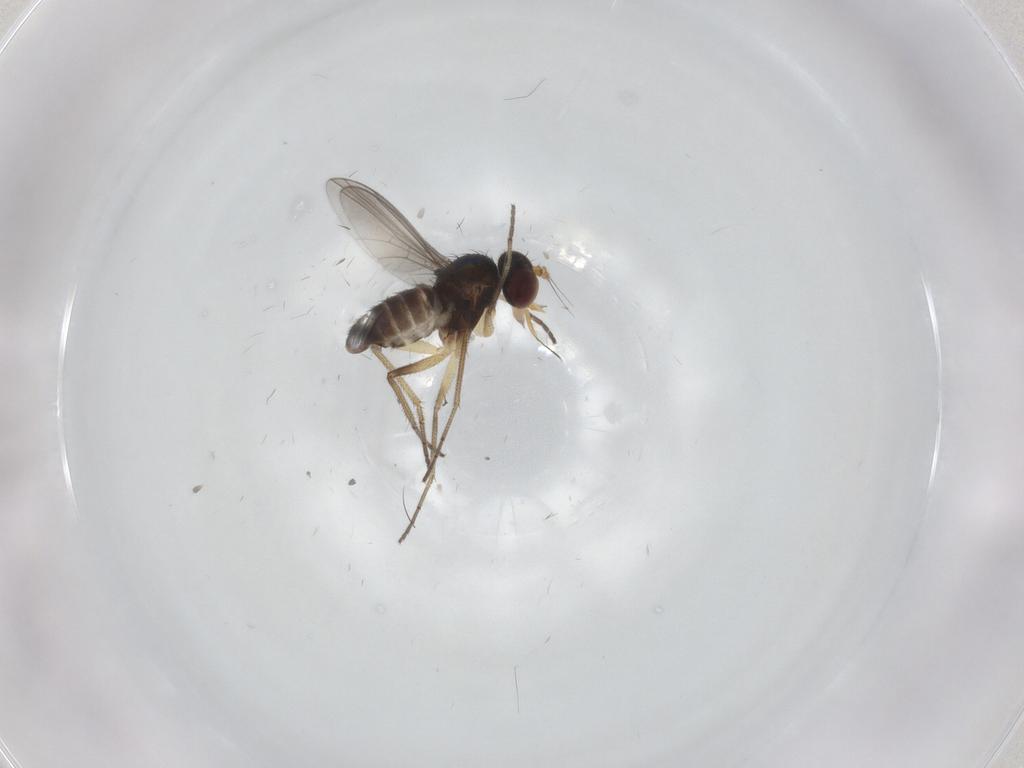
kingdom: Animalia
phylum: Arthropoda
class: Insecta
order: Diptera
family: Dolichopodidae
